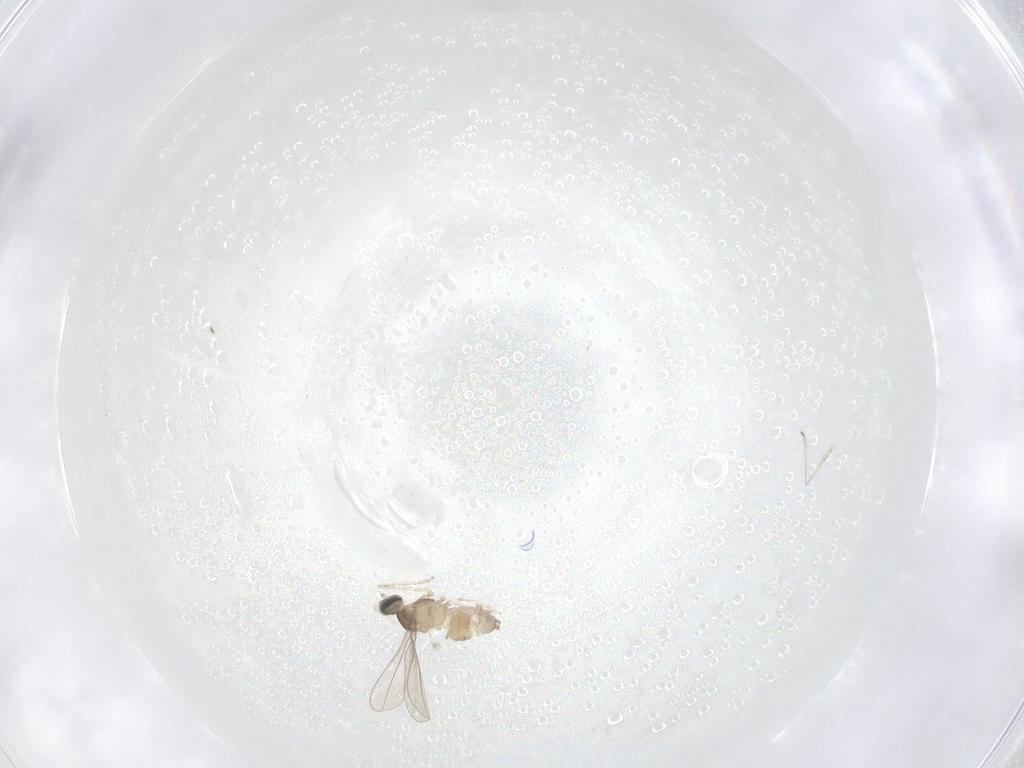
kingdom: Animalia
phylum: Arthropoda
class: Insecta
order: Diptera
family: Cecidomyiidae
